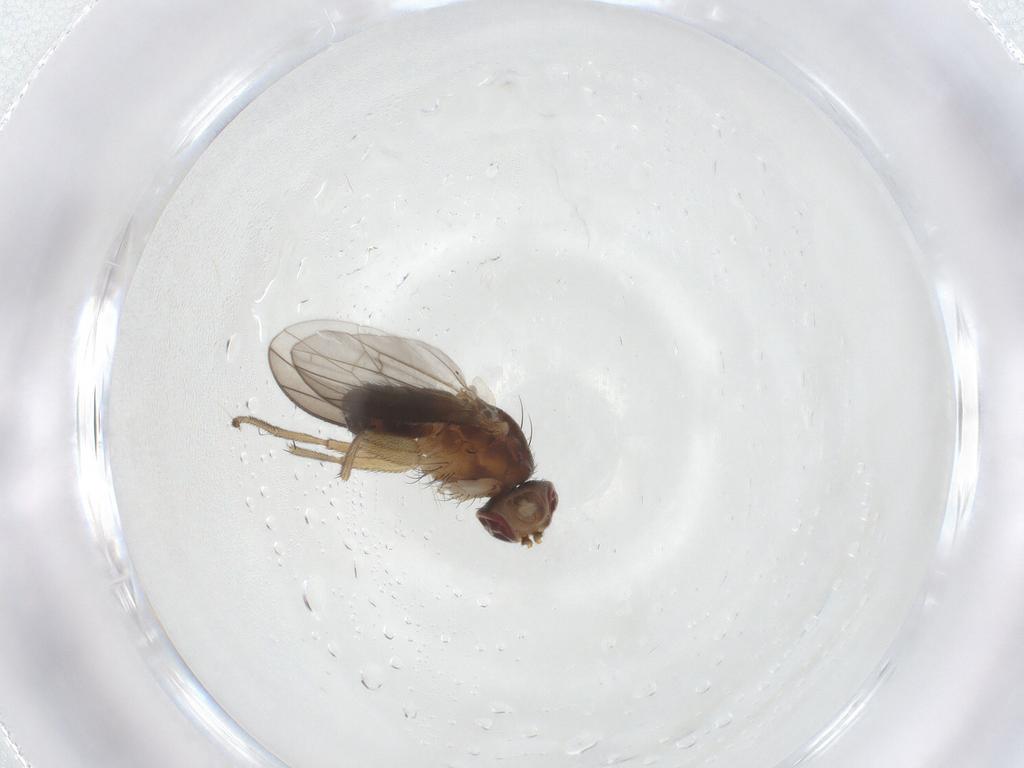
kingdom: Animalia
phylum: Arthropoda
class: Insecta
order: Diptera
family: Heleomyzidae
